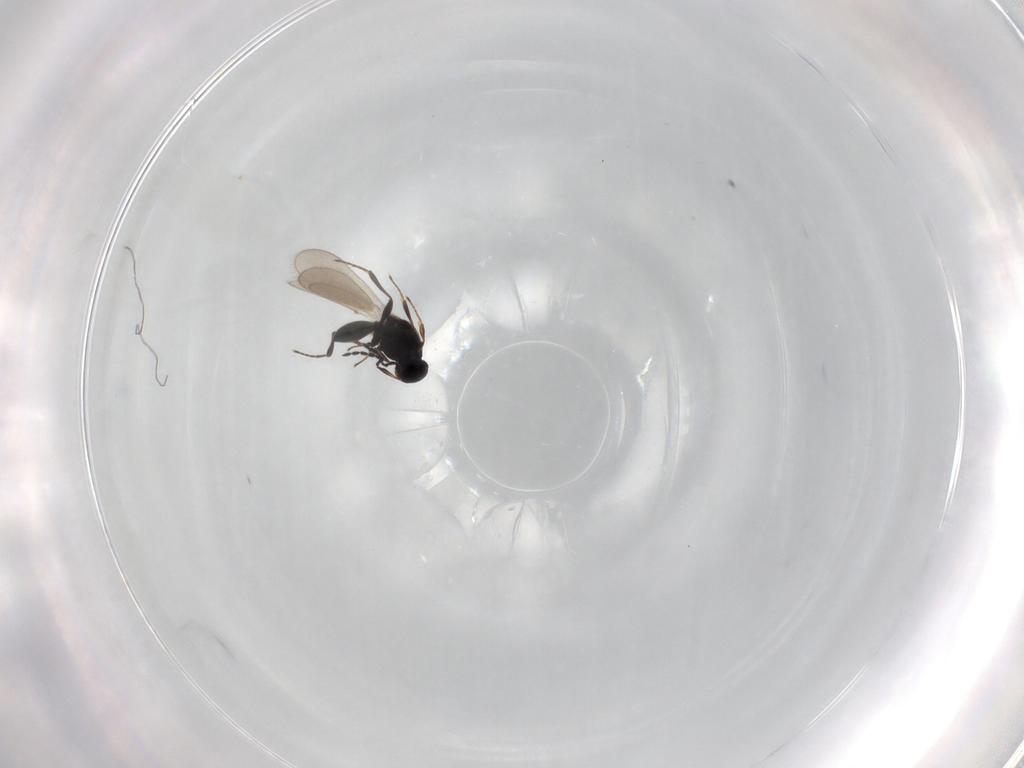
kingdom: Animalia
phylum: Arthropoda
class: Insecta
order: Hymenoptera
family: Platygastridae
